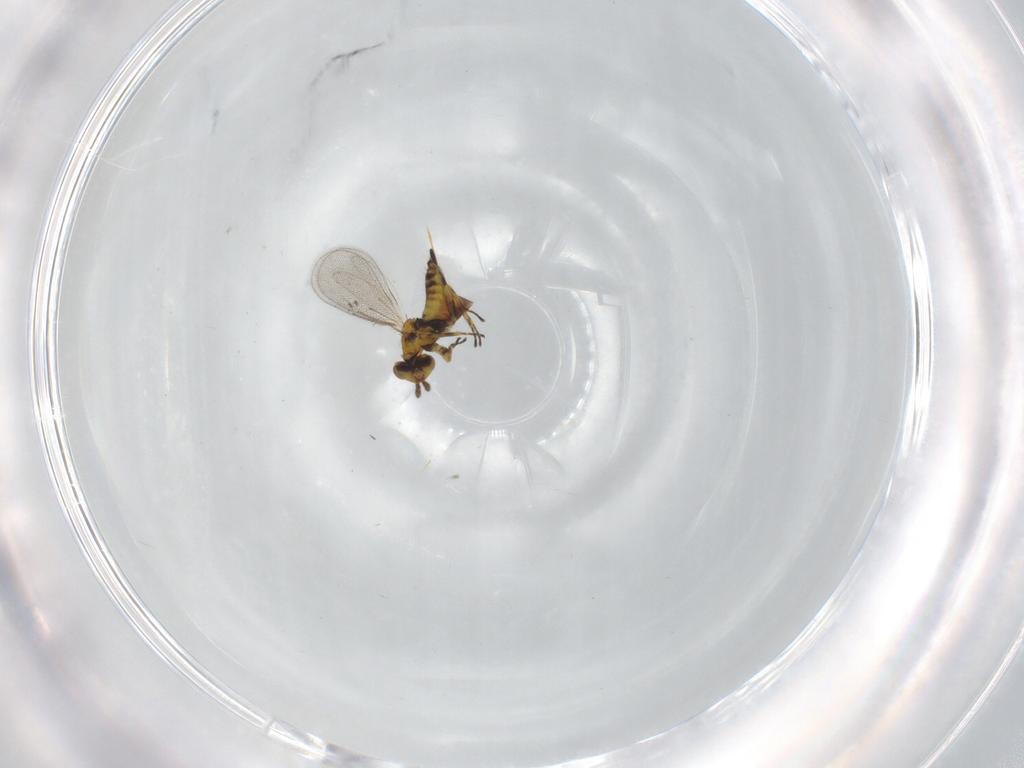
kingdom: Animalia
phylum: Arthropoda
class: Insecta
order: Hymenoptera
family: Eulophidae
